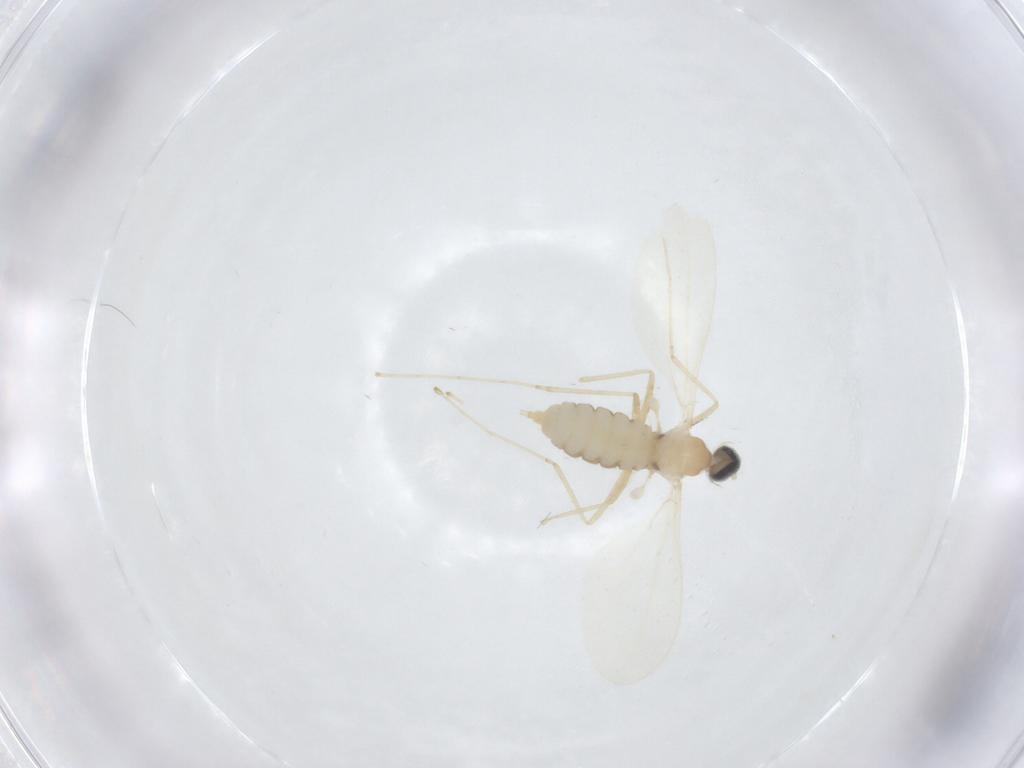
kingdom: Animalia
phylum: Arthropoda
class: Insecta
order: Diptera
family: Cecidomyiidae
